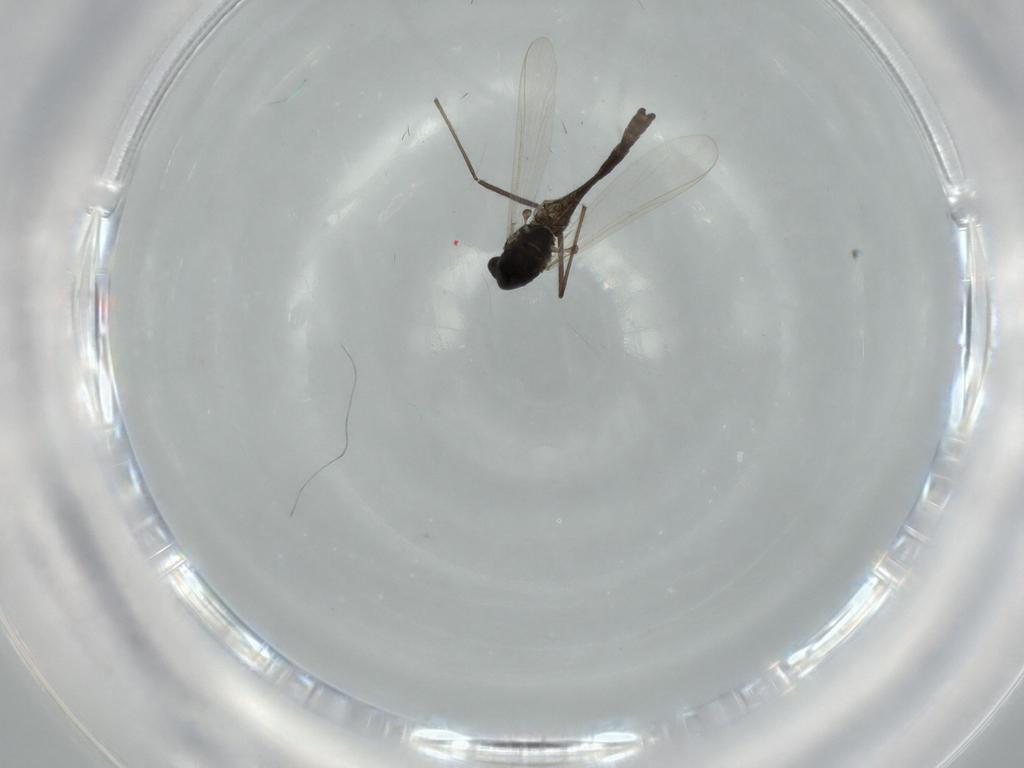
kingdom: Animalia
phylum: Arthropoda
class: Insecta
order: Diptera
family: Chironomidae
